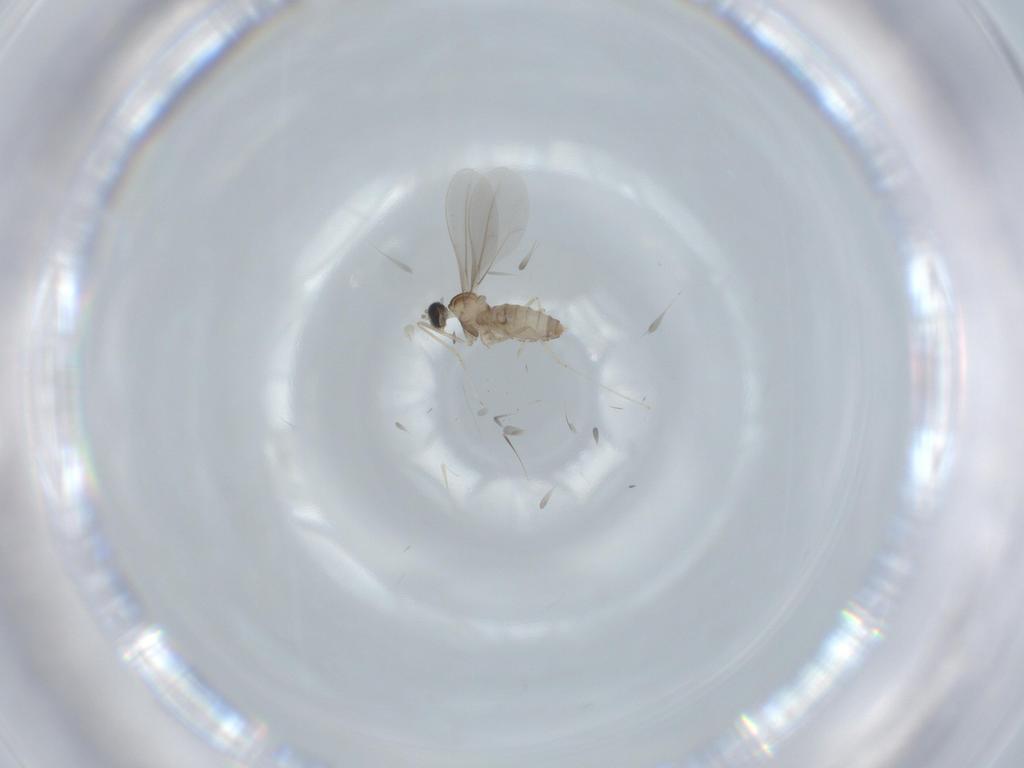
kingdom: Animalia
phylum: Arthropoda
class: Insecta
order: Diptera
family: Cecidomyiidae
